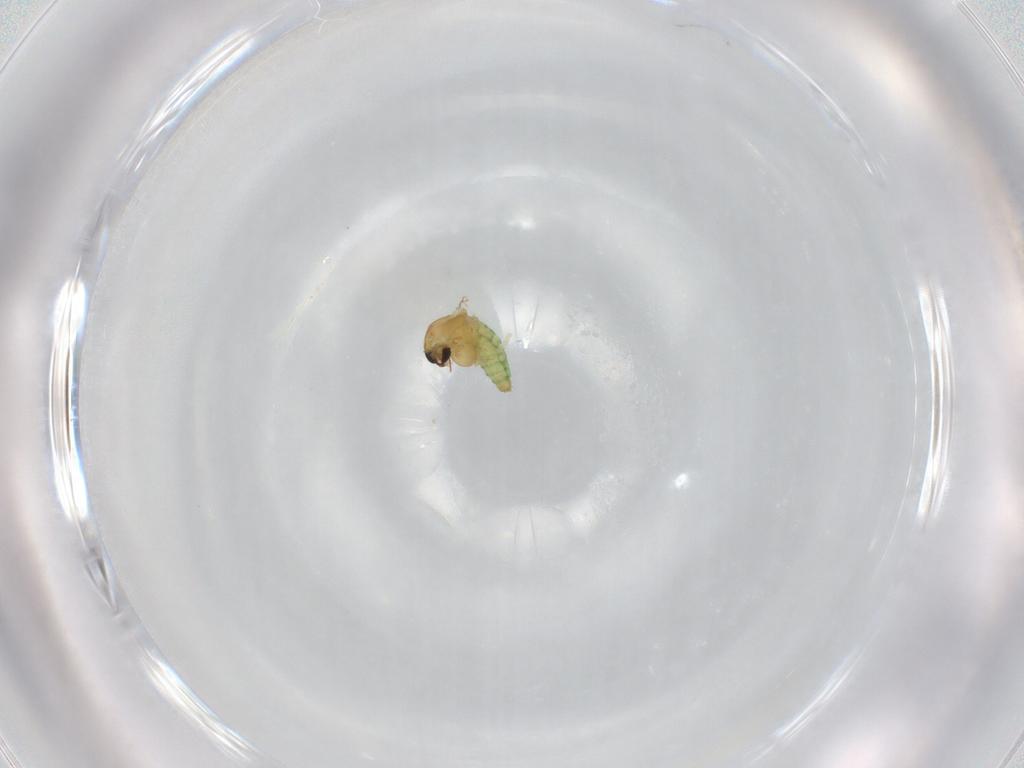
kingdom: Animalia
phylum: Arthropoda
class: Insecta
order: Diptera
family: Chironomidae
